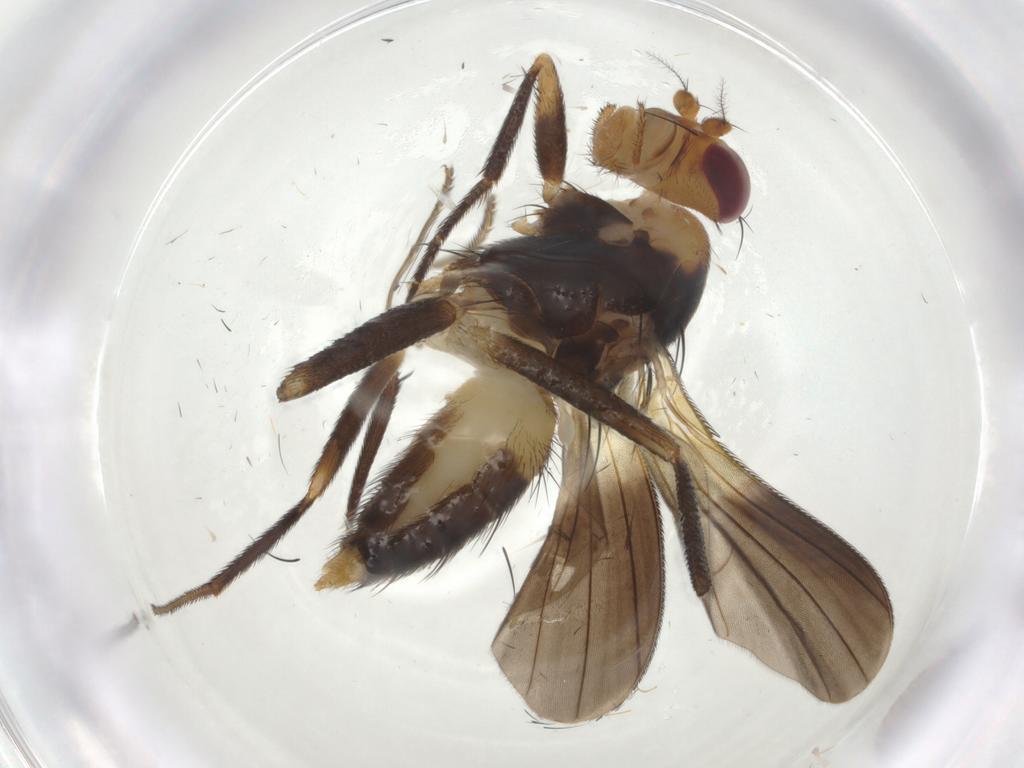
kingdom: Animalia
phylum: Arthropoda
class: Insecta
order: Diptera
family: Clusiidae
